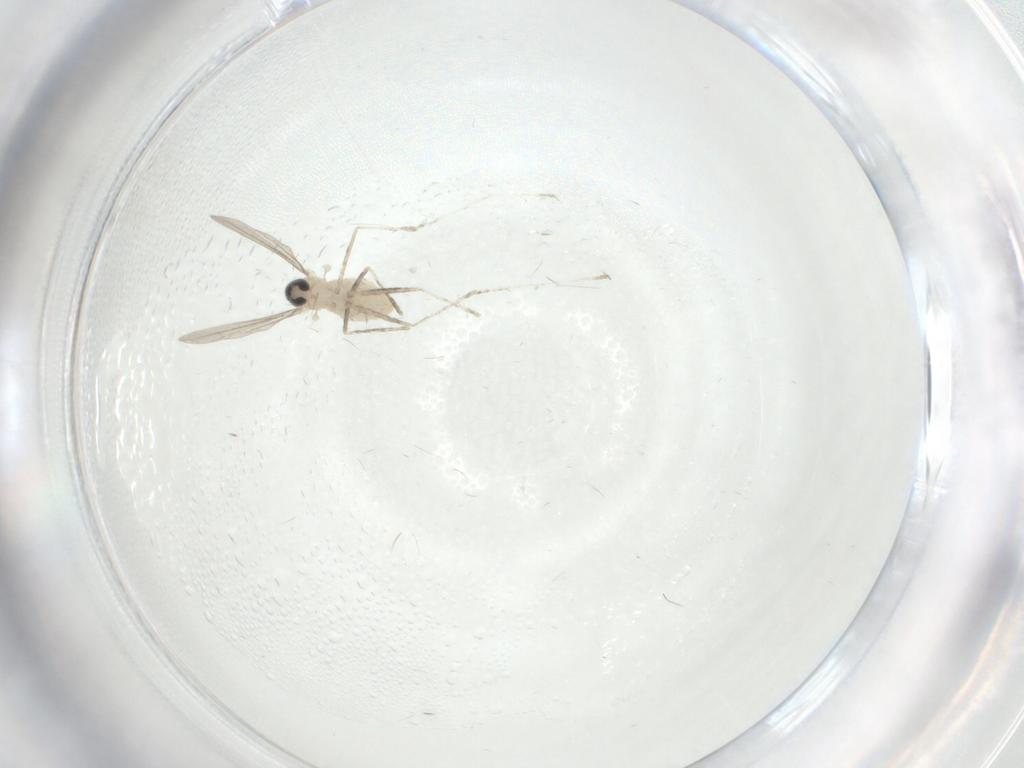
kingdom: Animalia
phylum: Arthropoda
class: Insecta
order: Diptera
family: Cecidomyiidae
